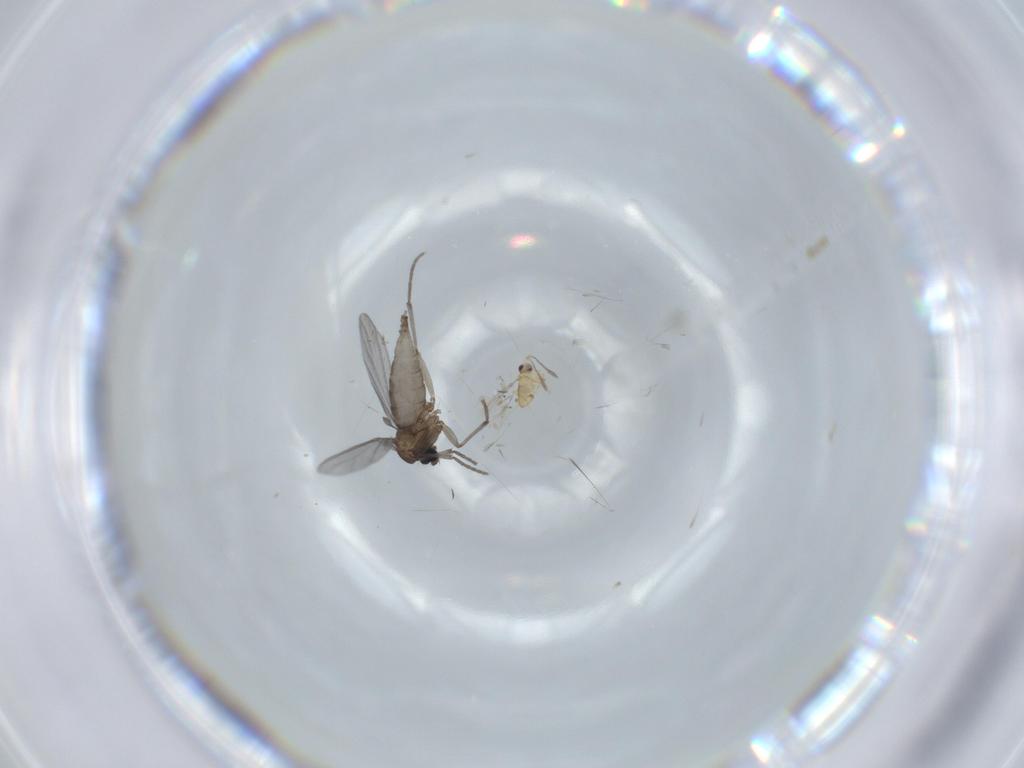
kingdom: Animalia
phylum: Arthropoda
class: Insecta
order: Diptera
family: Sciaridae
